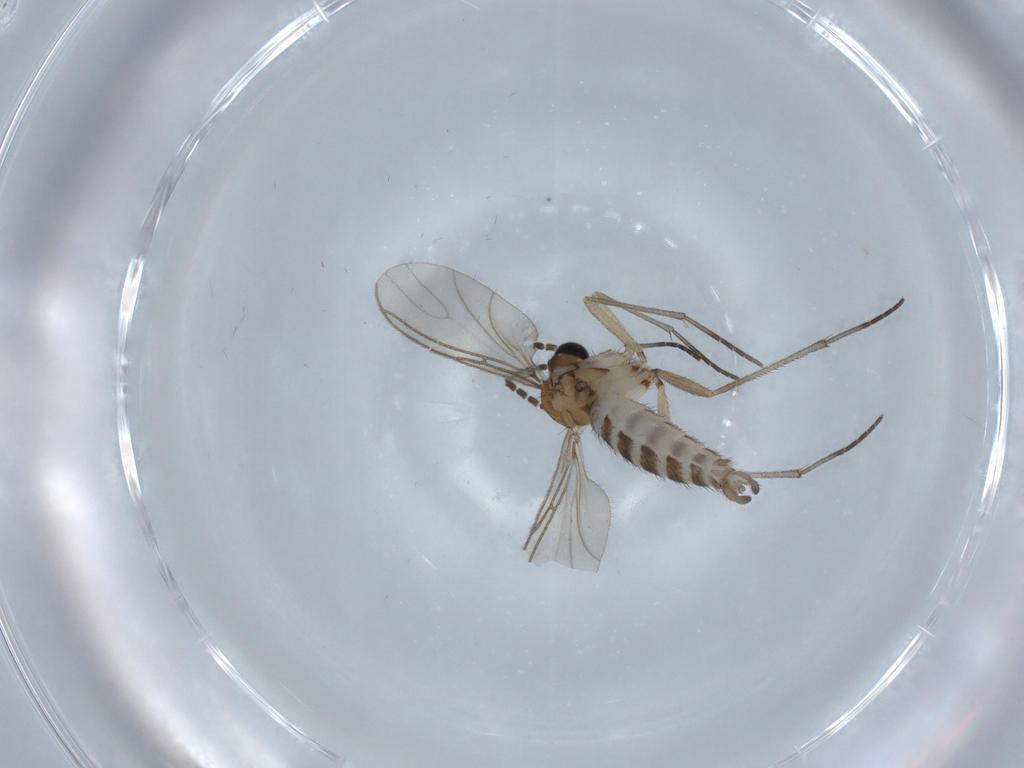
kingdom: Animalia
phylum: Arthropoda
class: Insecta
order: Diptera
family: Sciaridae
